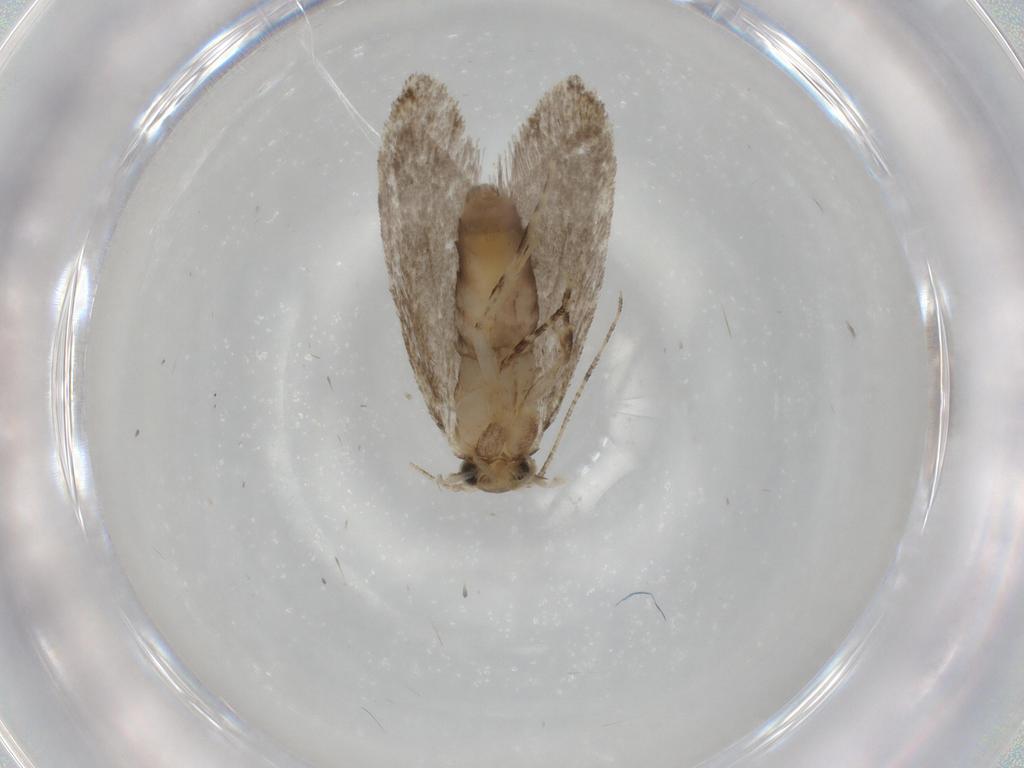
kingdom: Animalia
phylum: Arthropoda
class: Insecta
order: Lepidoptera
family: Tineidae
